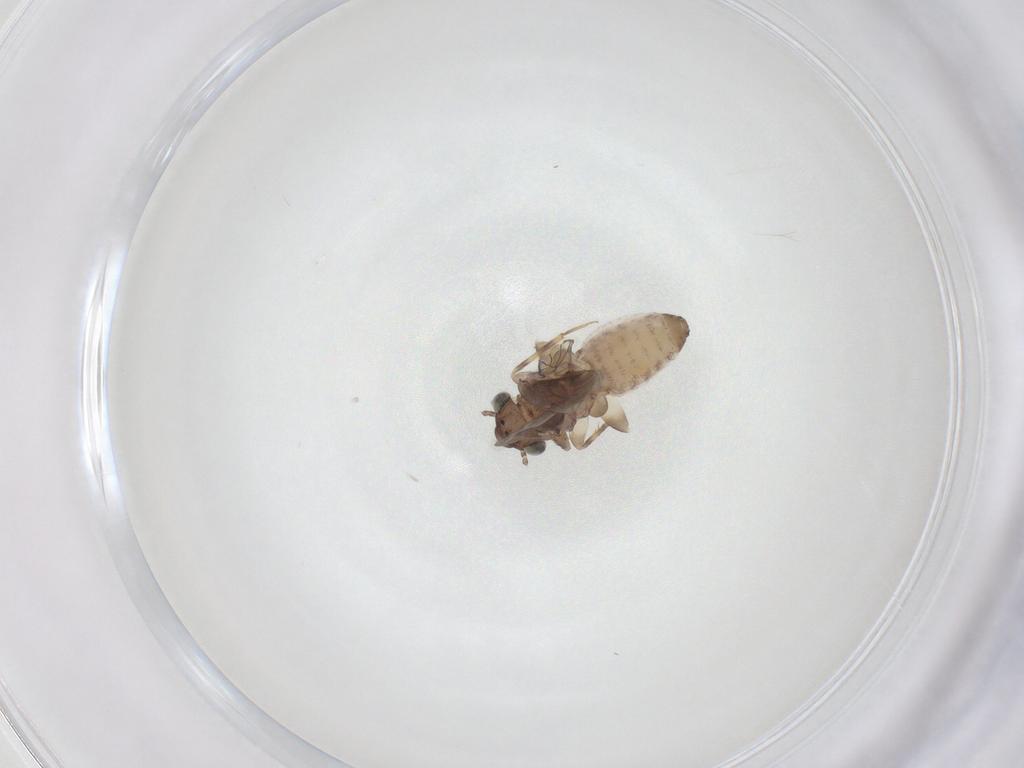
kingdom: Animalia
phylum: Arthropoda
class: Insecta
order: Psocodea
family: Lepidopsocidae
